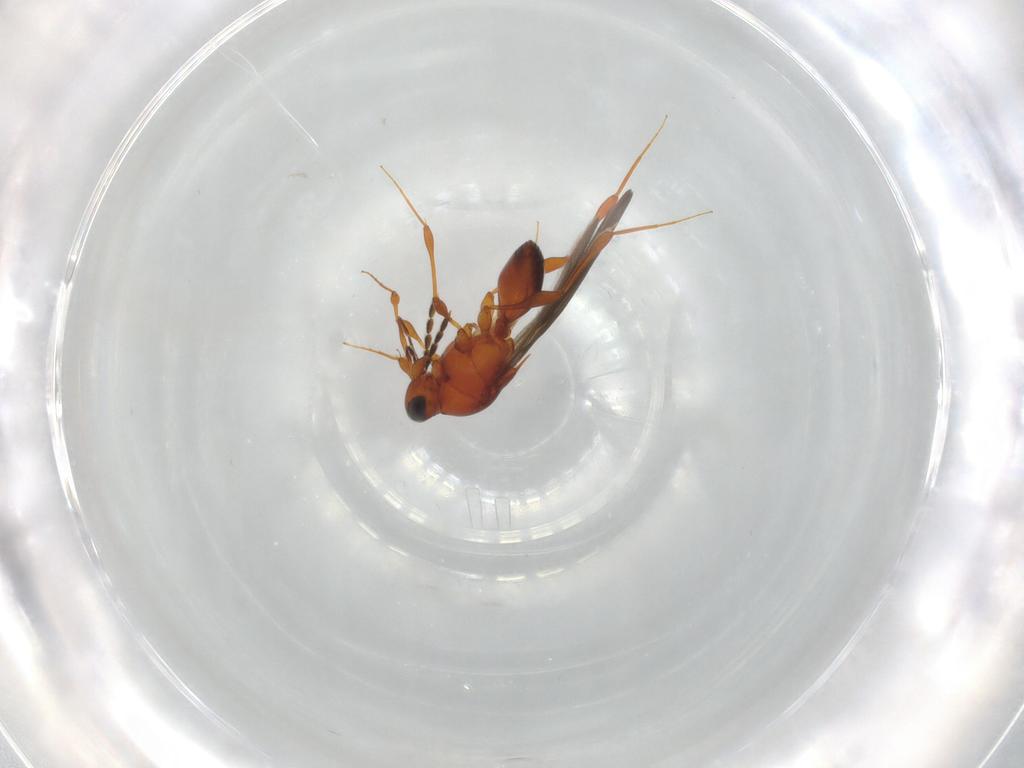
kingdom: Animalia
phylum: Arthropoda
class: Insecta
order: Hymenoptera
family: Platygastridae
